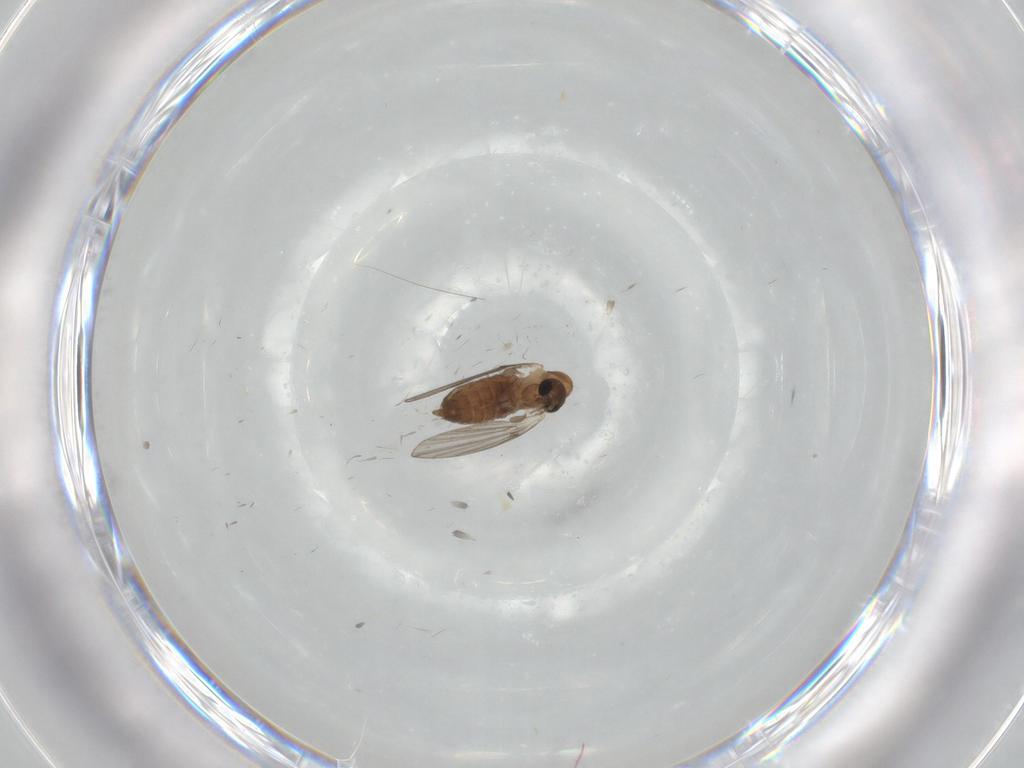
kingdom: Animalia
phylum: Arthropoda
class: Insecta
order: Diptera
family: Psychodidae
